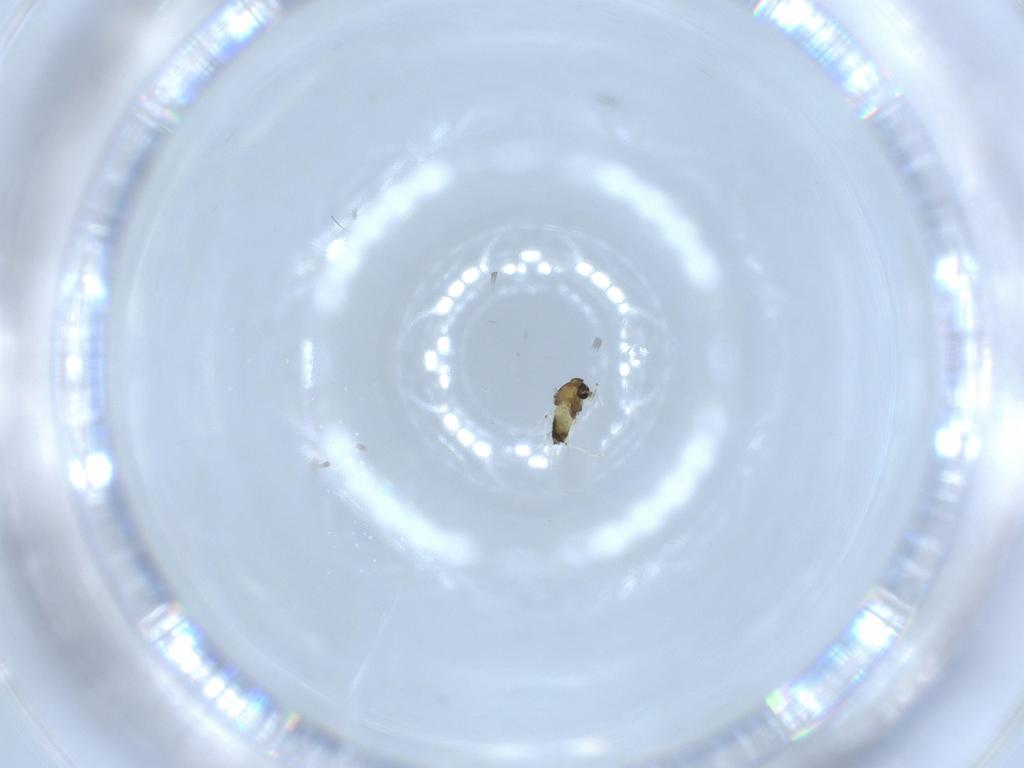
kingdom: Animalia
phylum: Arthropoda
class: Insecta
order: Diptera
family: Chironomidae
